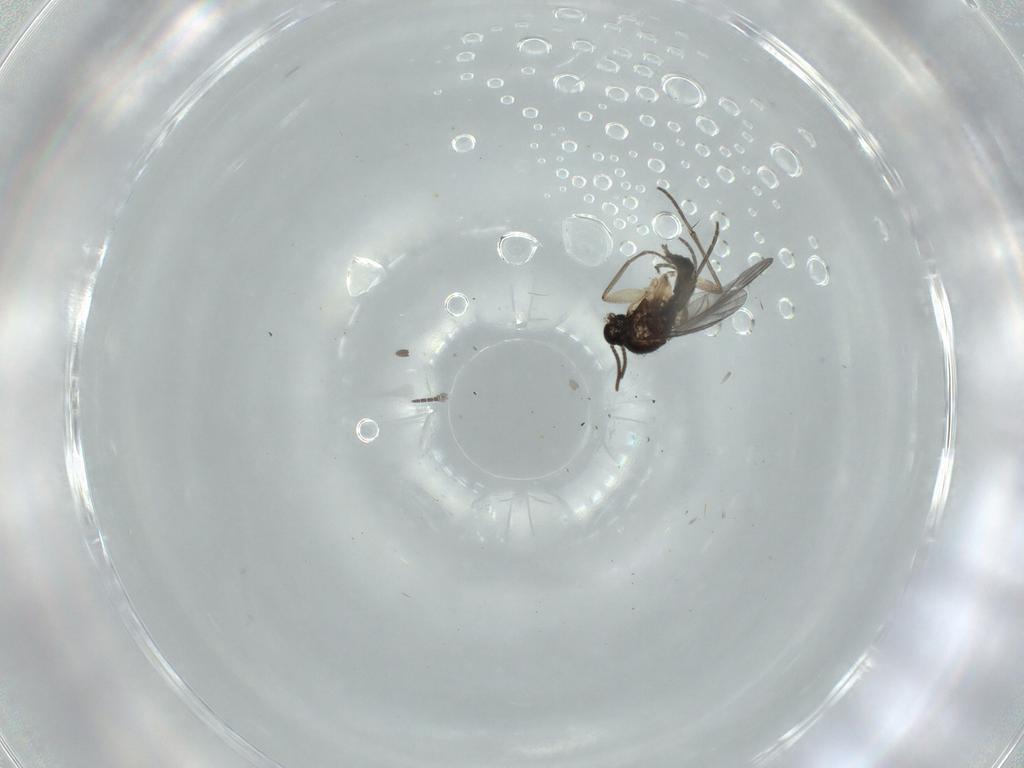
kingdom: Animalia
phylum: Arthropoda
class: Insecta
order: Diptera
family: Sciaridae
